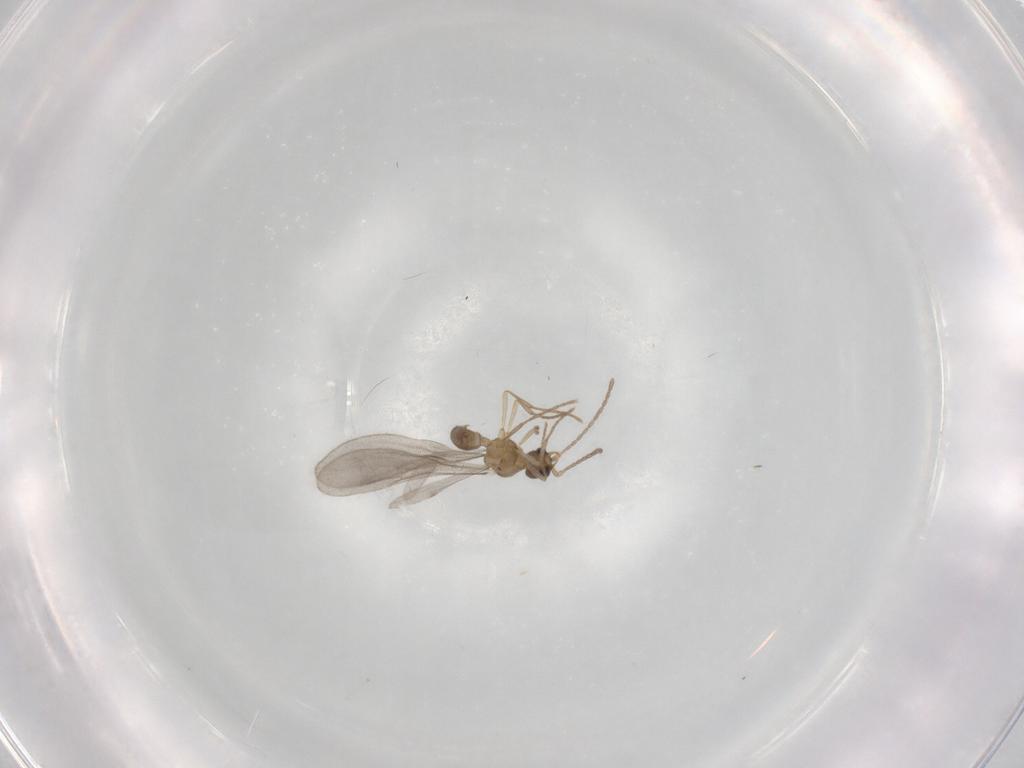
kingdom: Animalia
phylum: Arthropoda
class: Insecta
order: Hymenoptera
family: Formicidae
